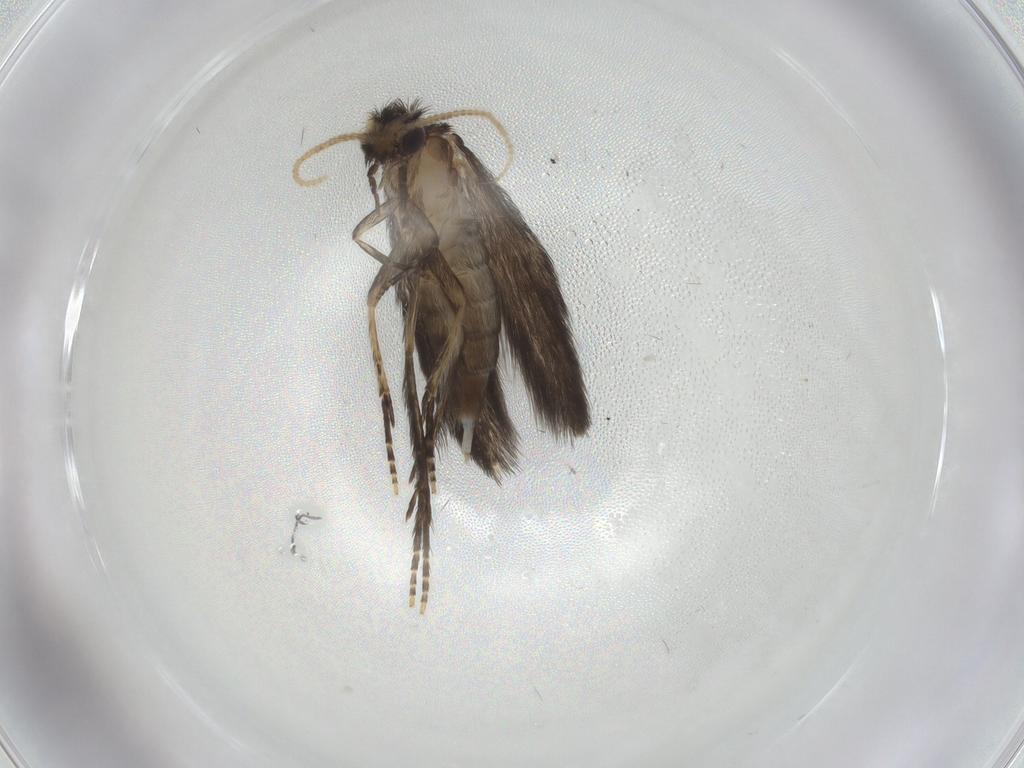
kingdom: Animalia
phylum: Arthropoda
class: Insecta
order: Trichoptera
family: Hydroptilidae
